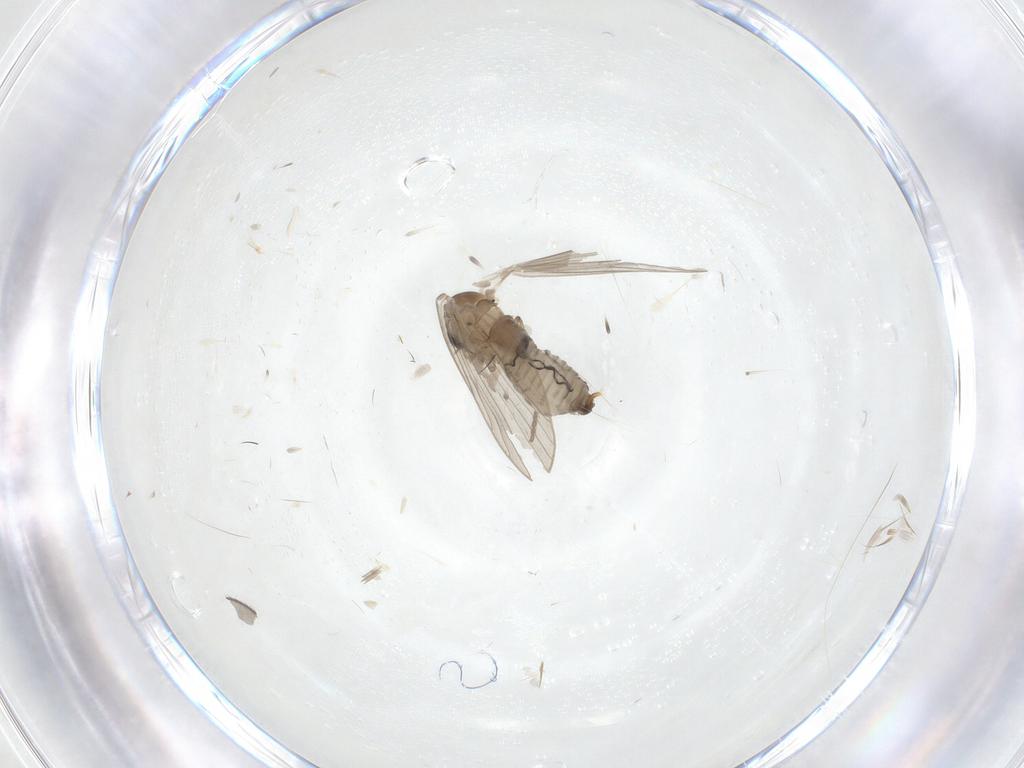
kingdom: Animalia
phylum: Arthropoda
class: Insecta
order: Diptera
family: Psychodidae
